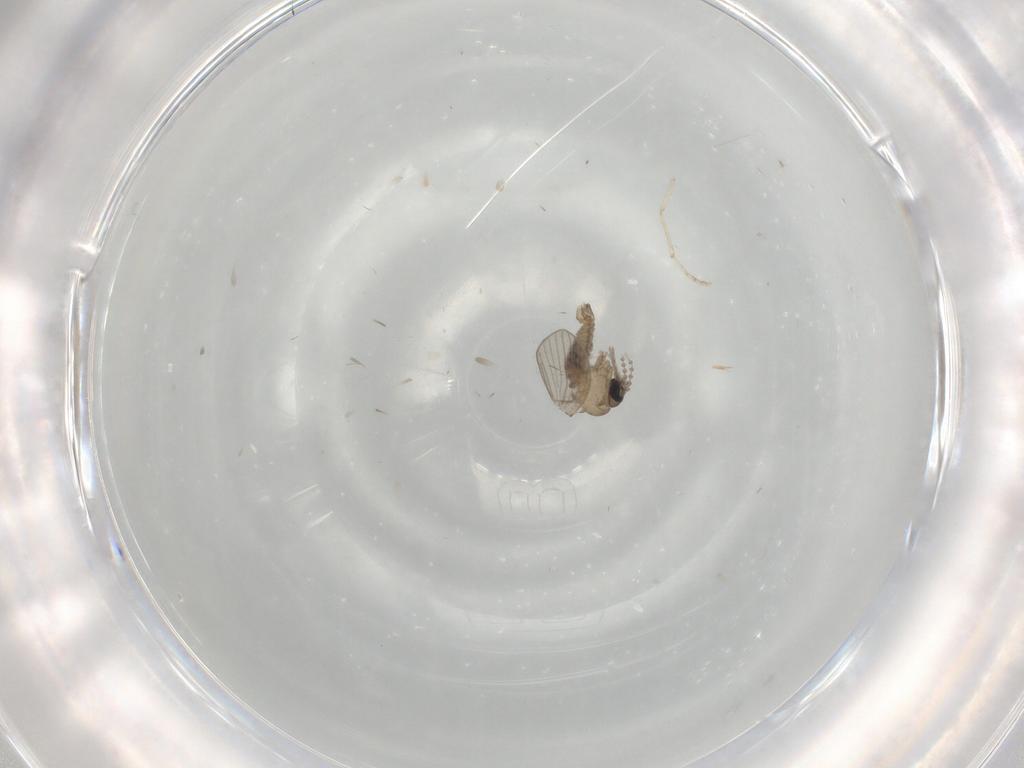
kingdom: Animalia
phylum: Arthropoda
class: Insecta
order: Diptera
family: Psychodidae
